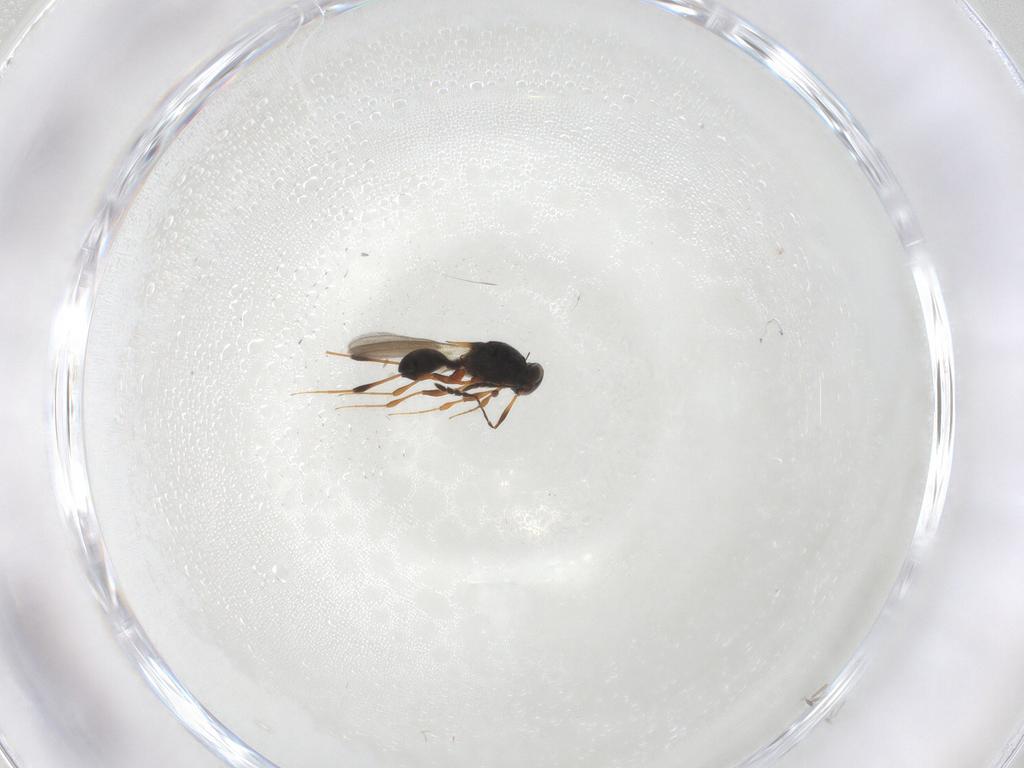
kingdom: Animalia
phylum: Arthropoda
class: Insecta
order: Hymenoptera
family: Platygastridae
